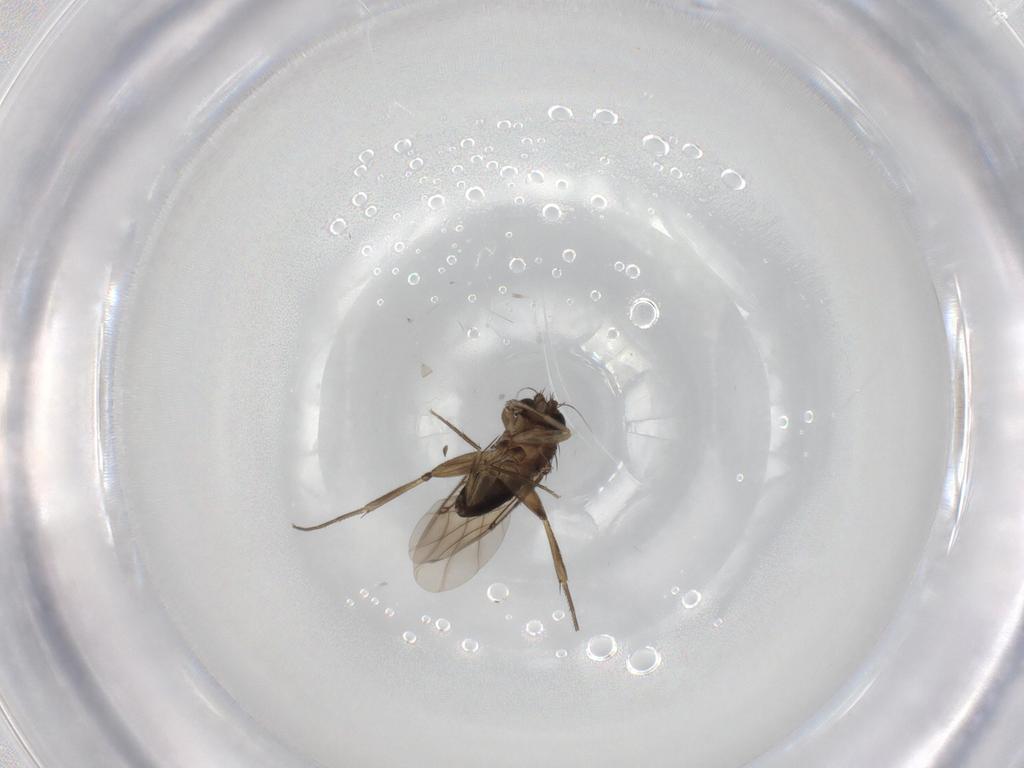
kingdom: Animalia
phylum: Arthropoda
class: Insecta
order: Diptera
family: Phoridae
